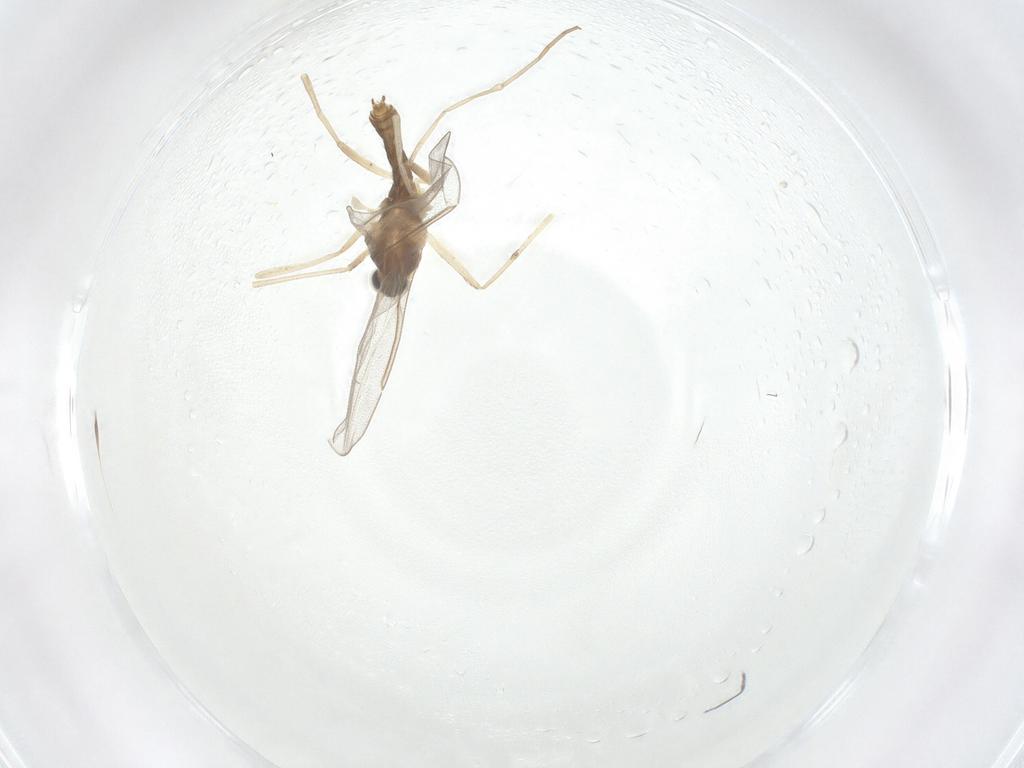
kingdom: Animalia
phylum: Arthropoda
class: Insecta
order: Diptera
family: Cecidomyiidae
